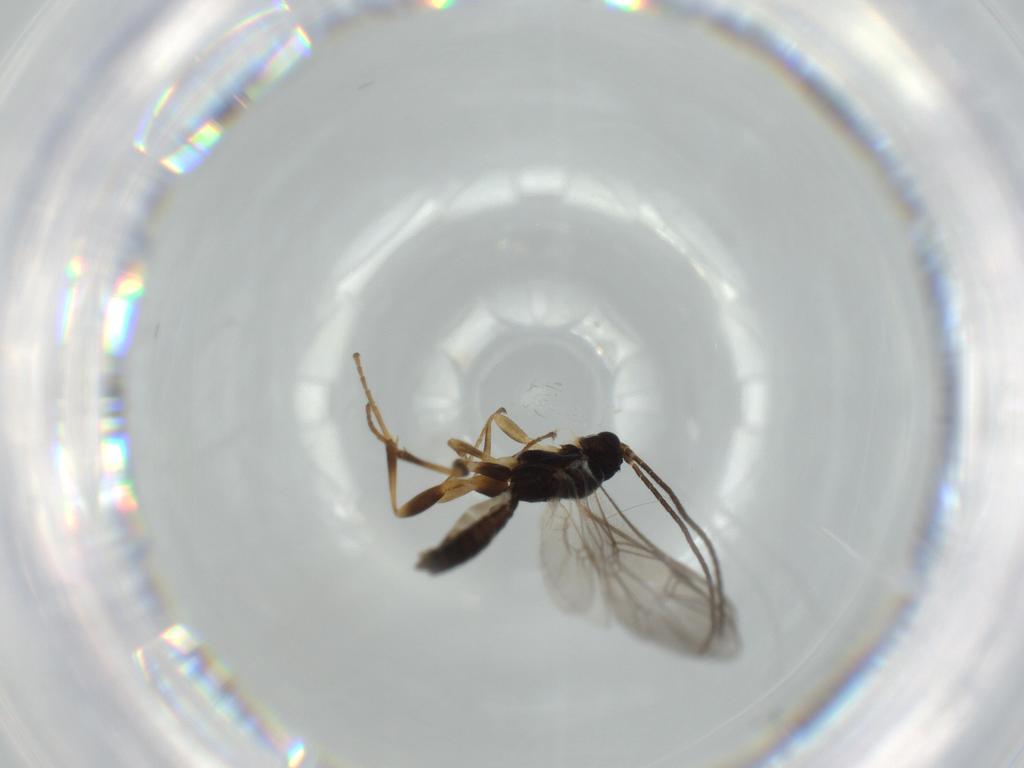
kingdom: Animalia
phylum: Arthropoda
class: Insecta
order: Hymenoptera
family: Ichneumonidae
